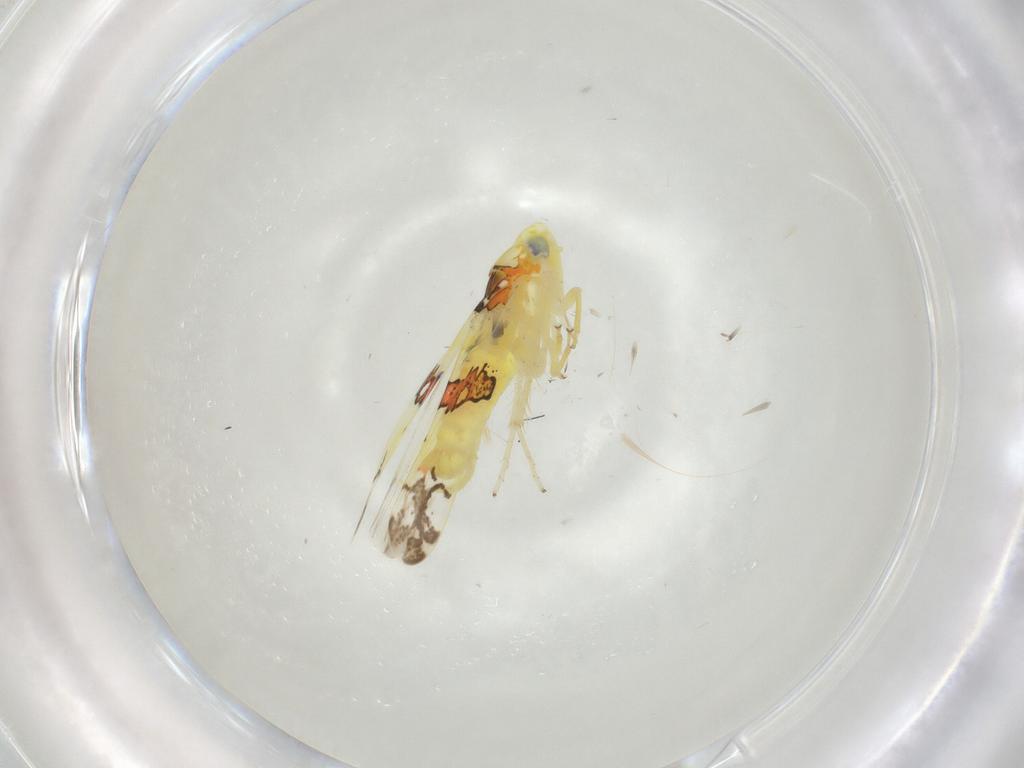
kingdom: Animalia
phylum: Arthropoda
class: Insecta
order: Hemiptera
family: Cicadellidae
